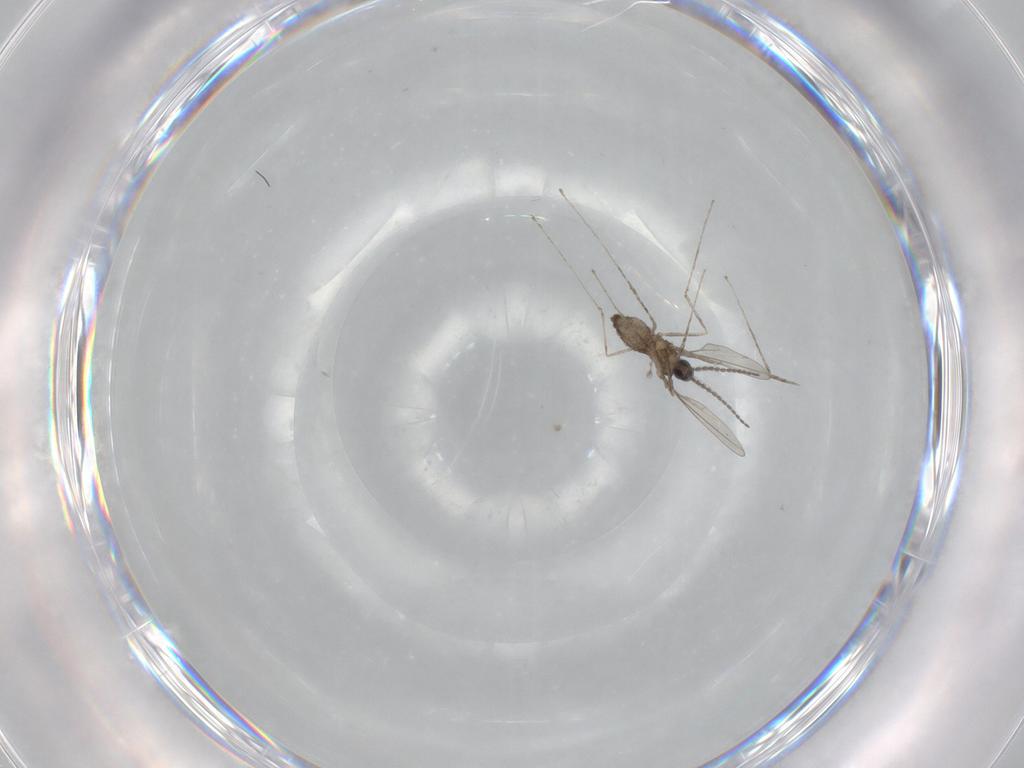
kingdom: Animalia
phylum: Arthropoda
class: Insecta
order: Diptera
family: Cecidomyiidae
